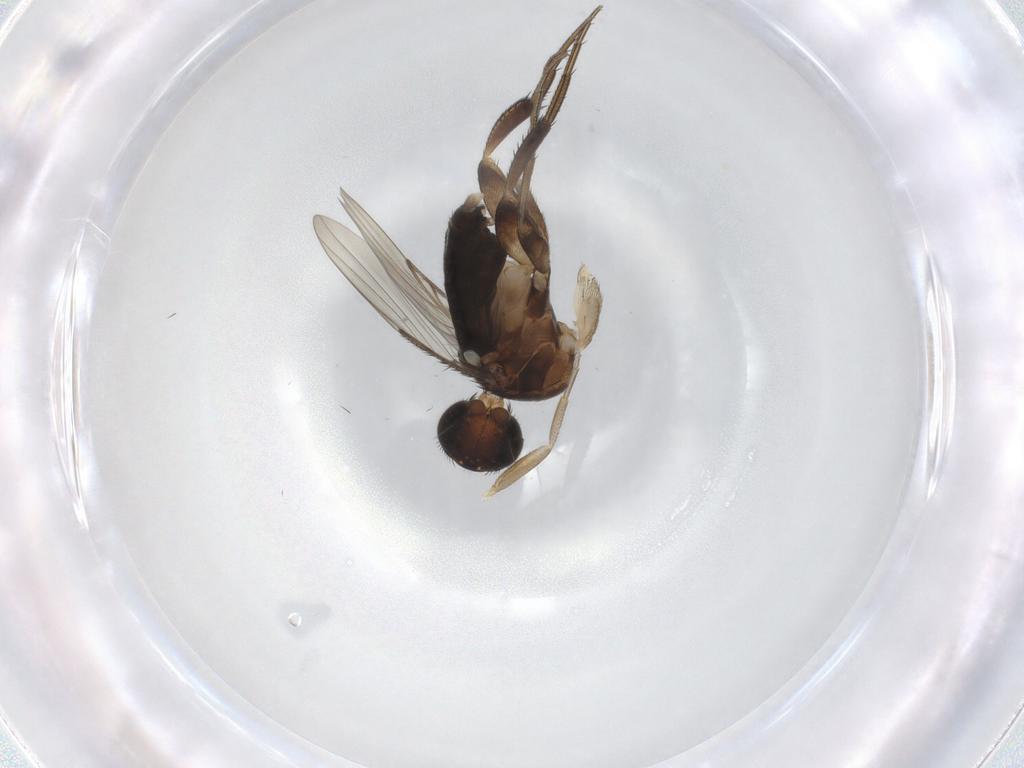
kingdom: Animalia
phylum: Arthropoda
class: Insecta
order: Diptera
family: Phoridae
